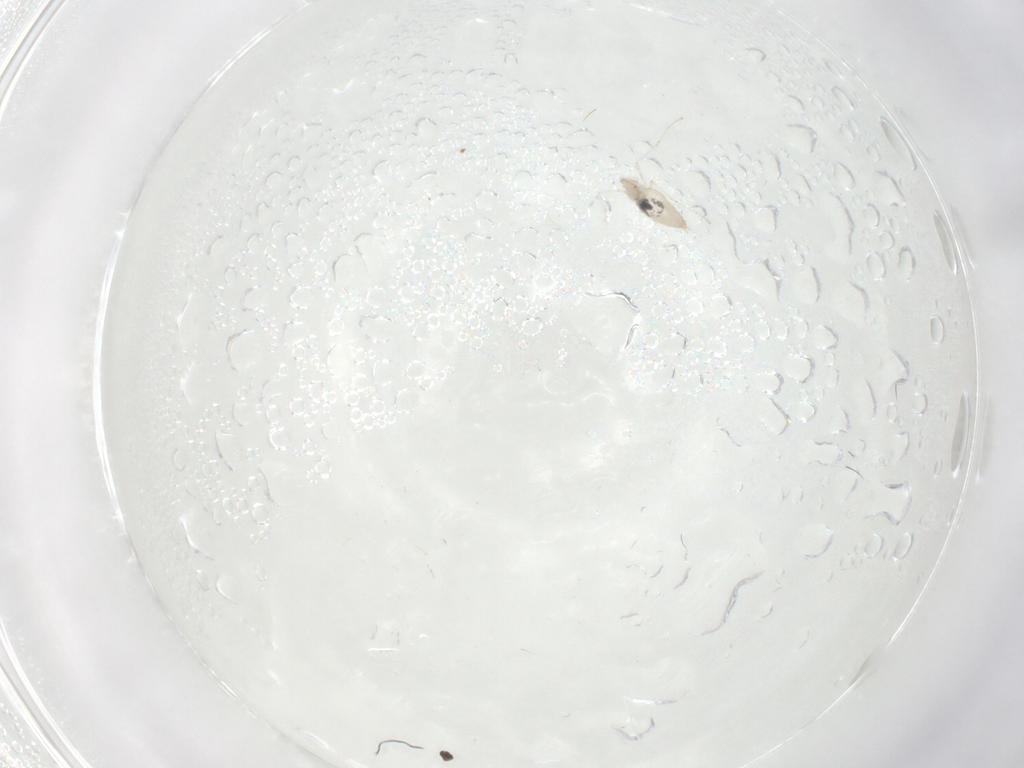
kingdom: Animalia
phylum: Arthropoda
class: Insecta
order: Diptera
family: Cecidomyiidae
